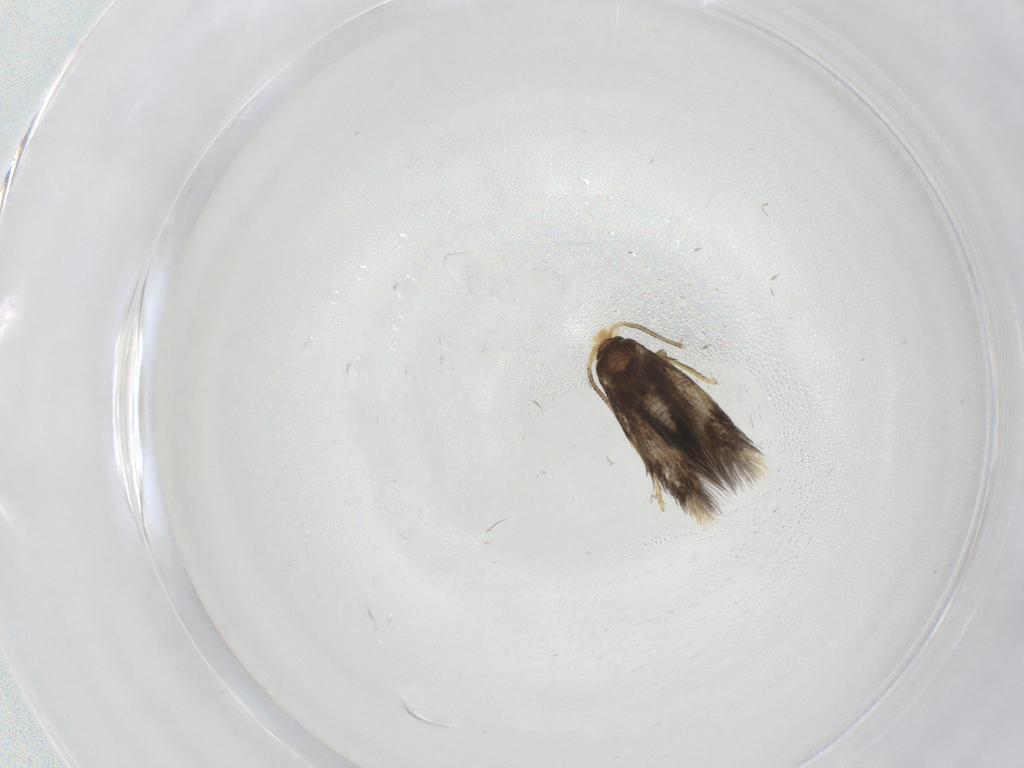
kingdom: Animalia
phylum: Arthropoda
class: Insecta
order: Lepidoptera
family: Copromorphidae
